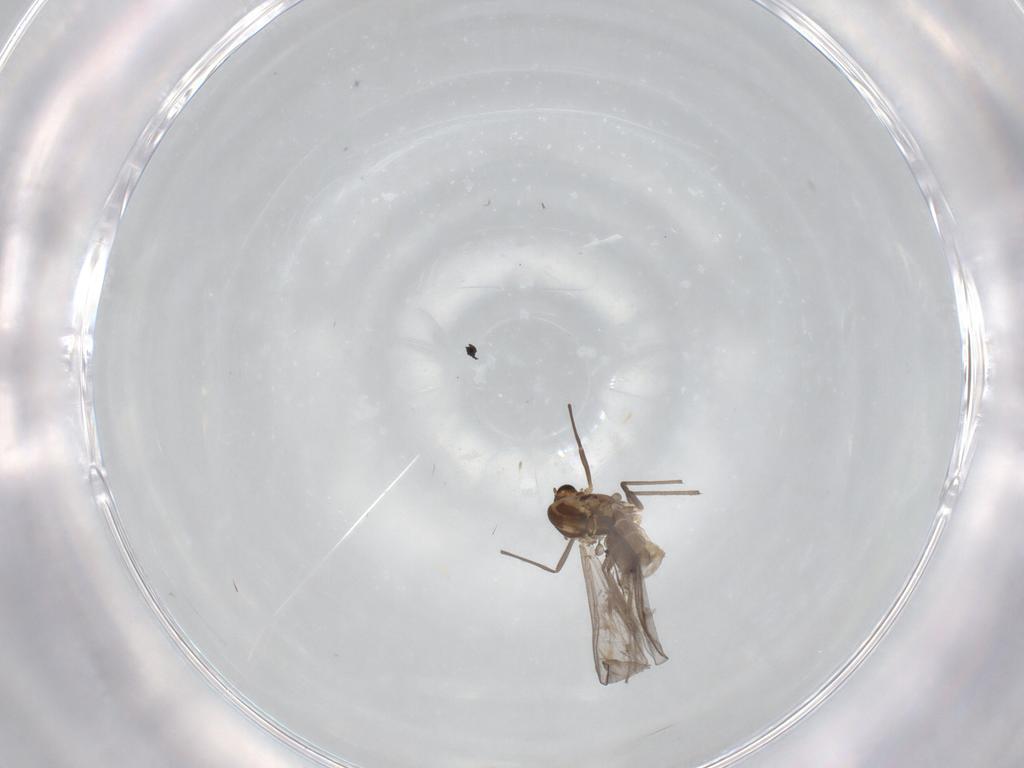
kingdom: Animalia
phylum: Arthropoda
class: Insecta
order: Diptera
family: Chironomidae
